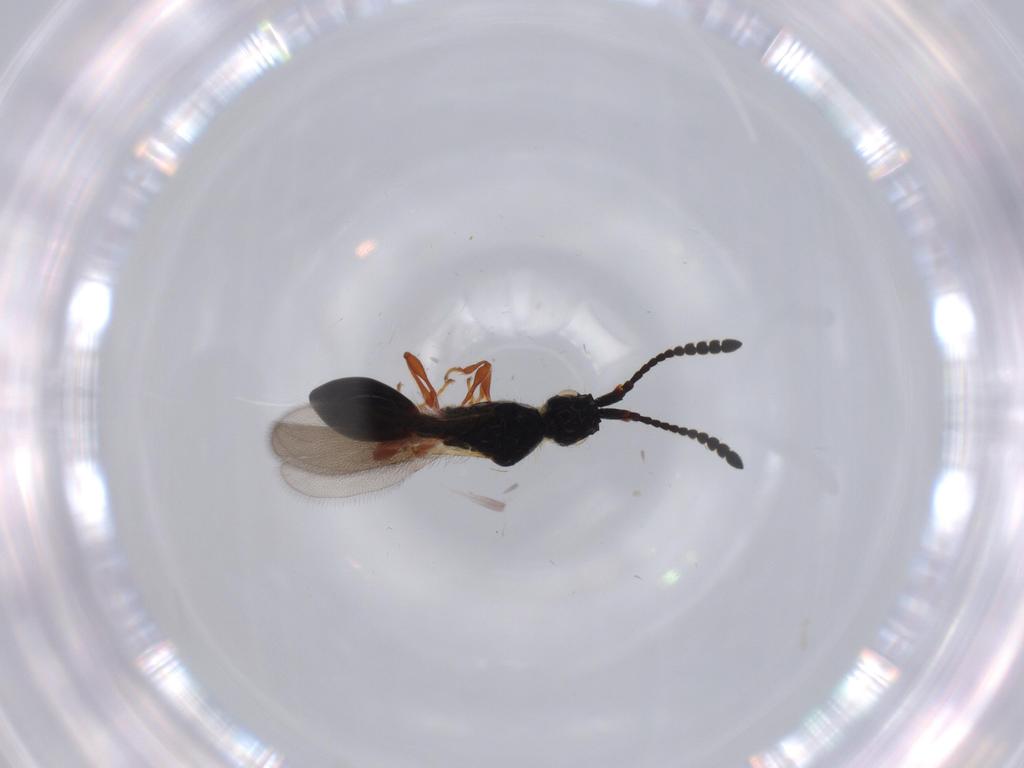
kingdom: Animalia
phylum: Arthropoda
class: Insecta
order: Hymenoptera
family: Diapriidae
